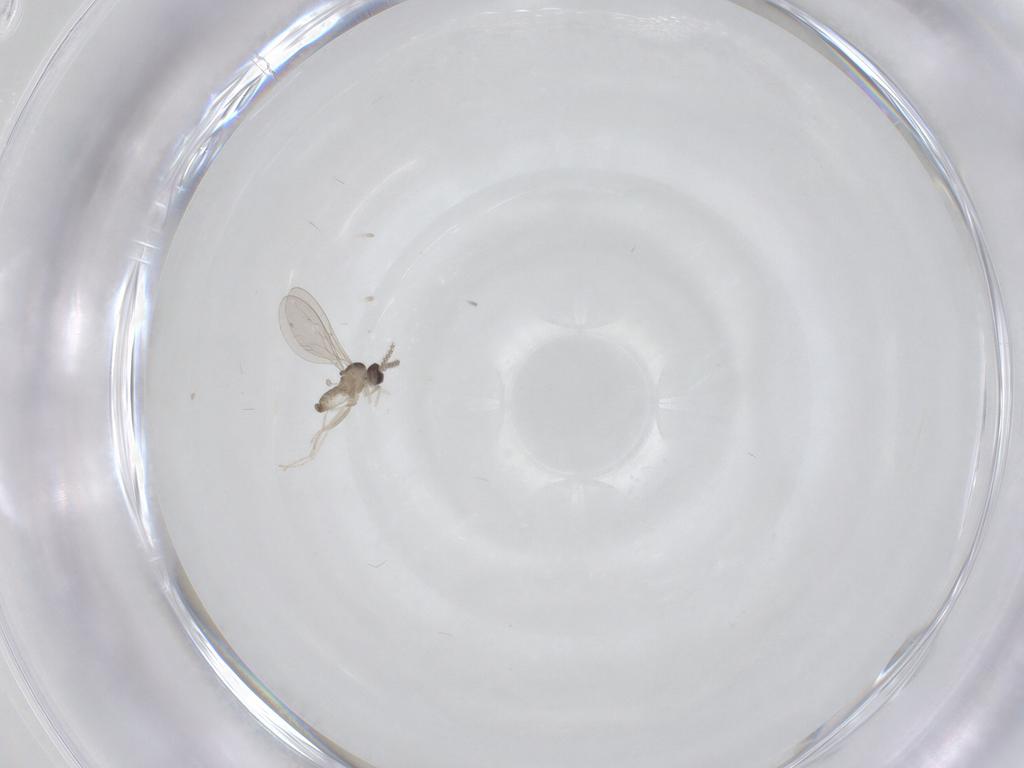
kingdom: Animalia
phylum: Arthropoda
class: Insecta
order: Diptera
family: Cecidomyiidae
